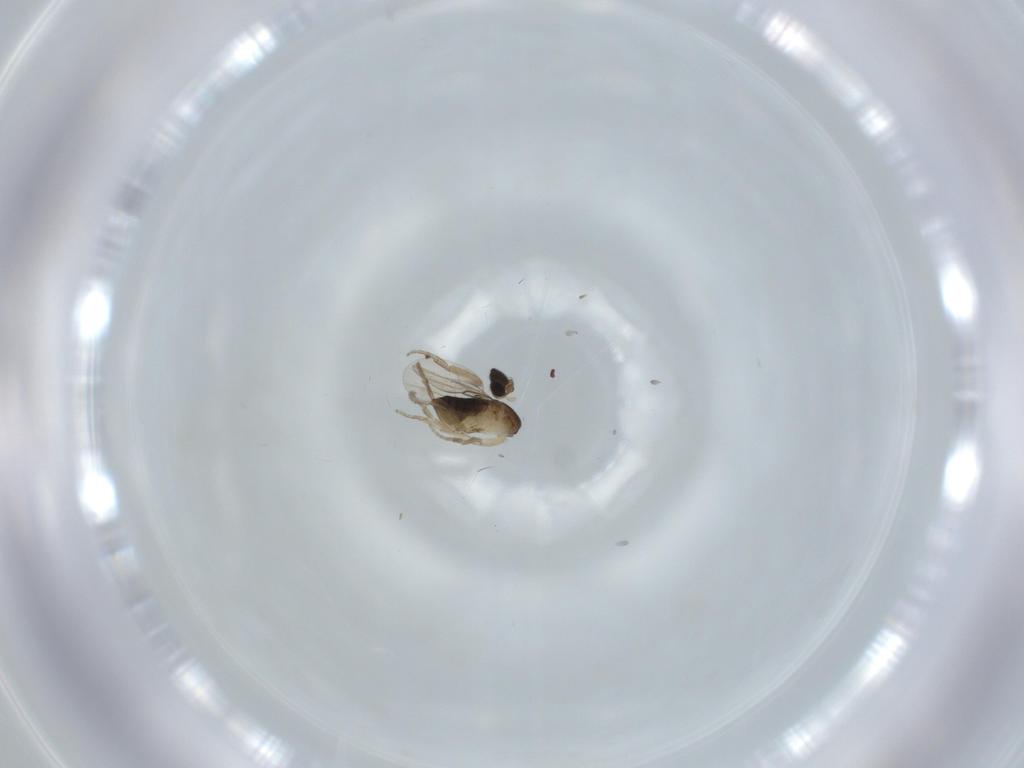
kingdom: Animalia
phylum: Arthropoda
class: Insecta
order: Diptera
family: Phoridae
